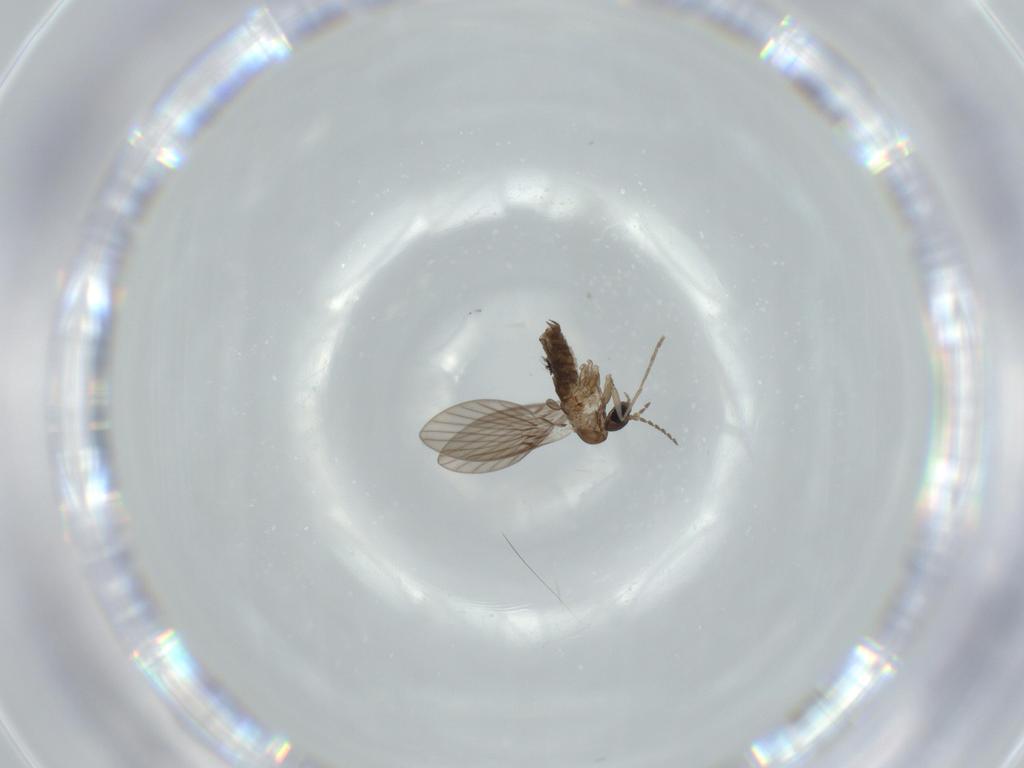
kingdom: Animalia
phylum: Arthropoda
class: Insecta
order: Diptera
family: Psychodidae
